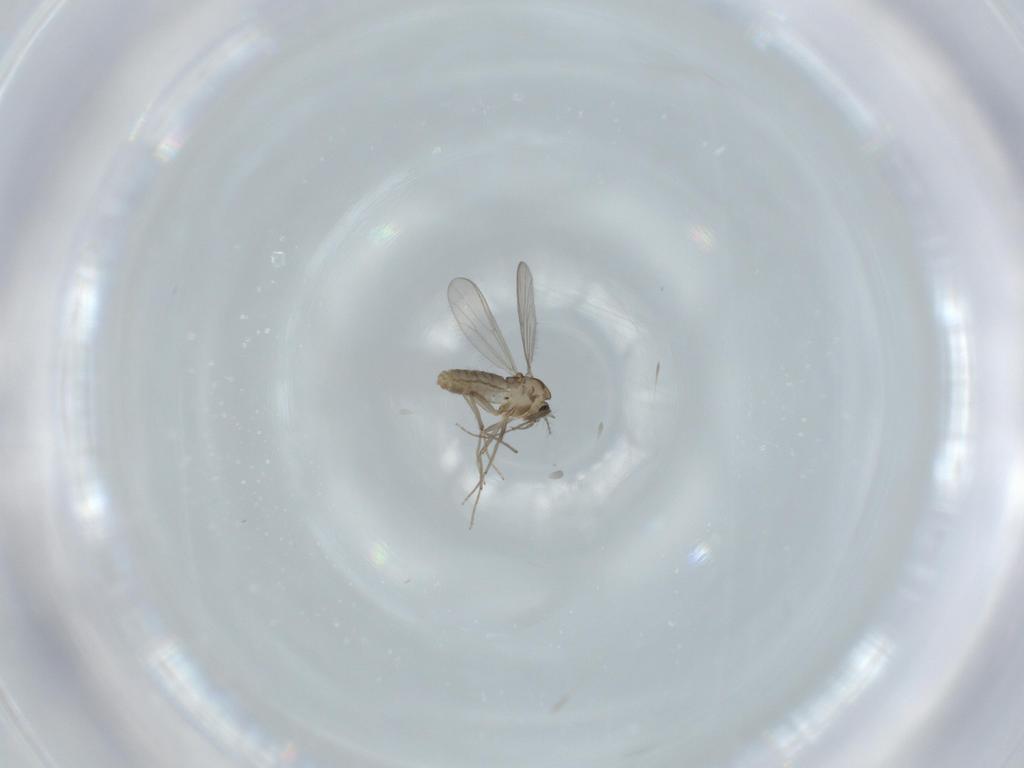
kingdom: Animalia
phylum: Arthropoda
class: Insecta
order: Diptera
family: Chironomidae
